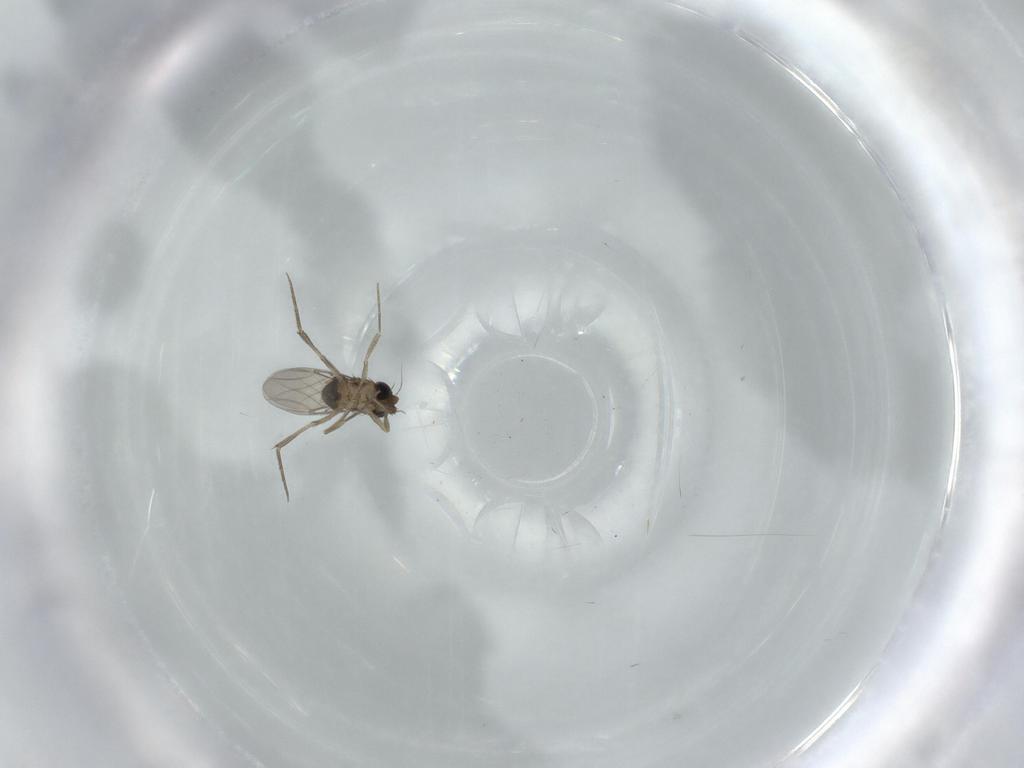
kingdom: Animalia
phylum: Arthropoda
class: Insecta
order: Diptera
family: Phoridae
